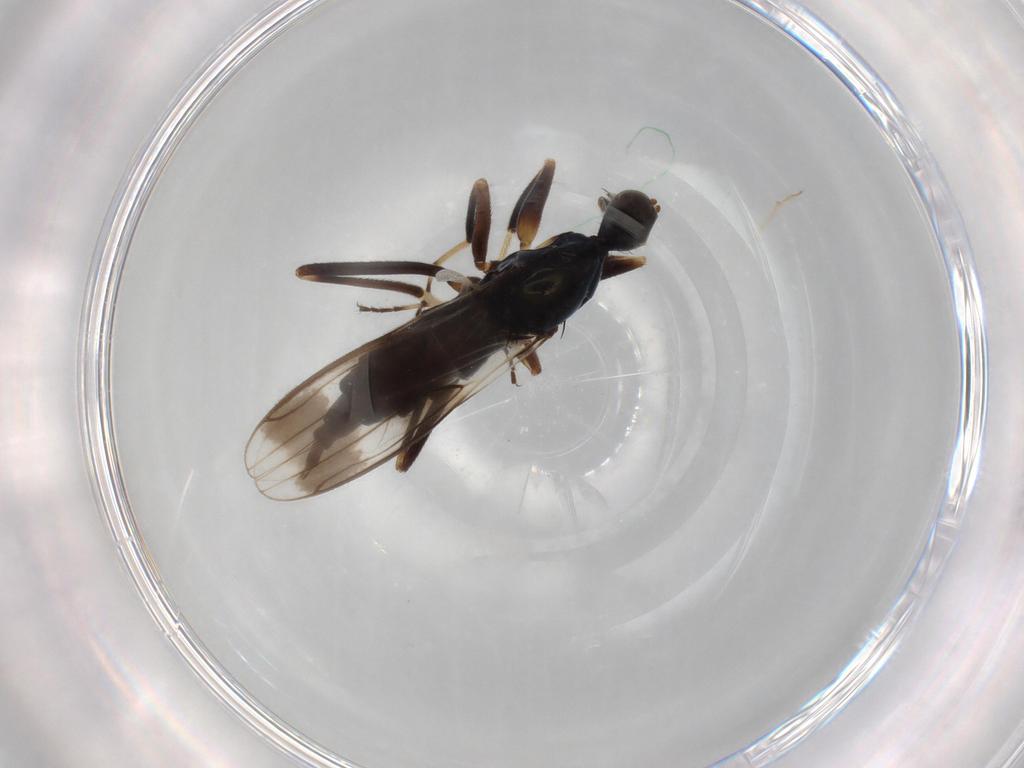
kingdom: Animalia
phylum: Arthropoda
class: Insecta
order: Diptera
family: Hybotidae
